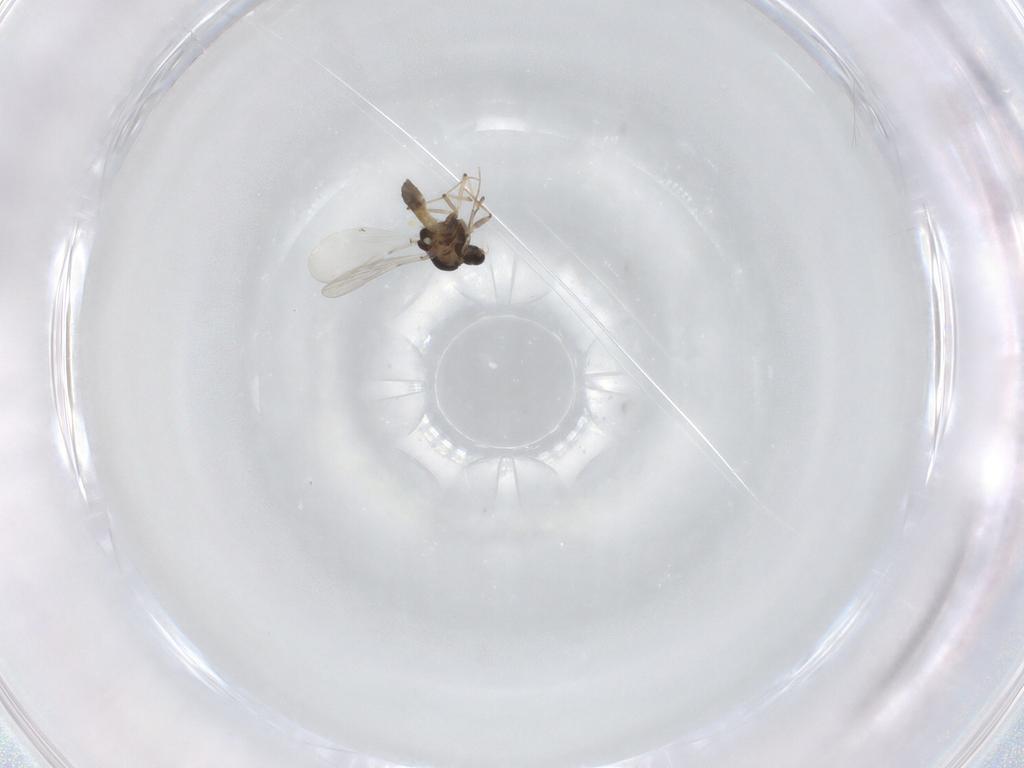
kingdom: Animalia
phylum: Arthropoda
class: Insecta
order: Diptera
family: Chironomidae
